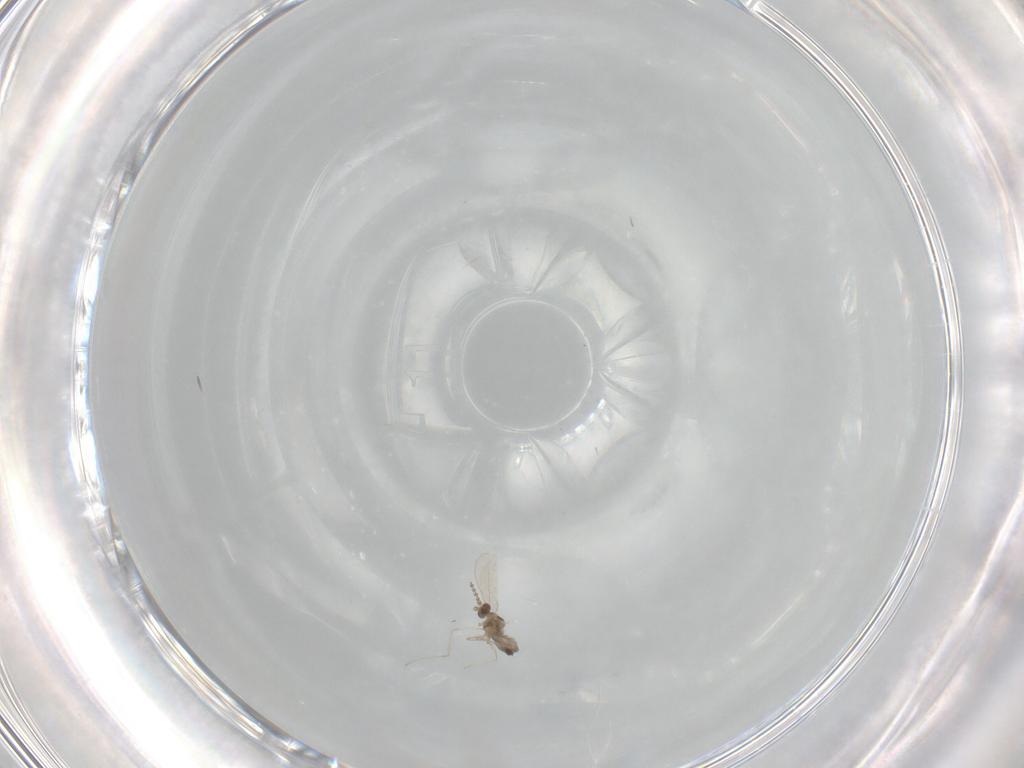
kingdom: Animalia
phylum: Arthropoda
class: Insecta
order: Diptera
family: Cecidomyiidae
